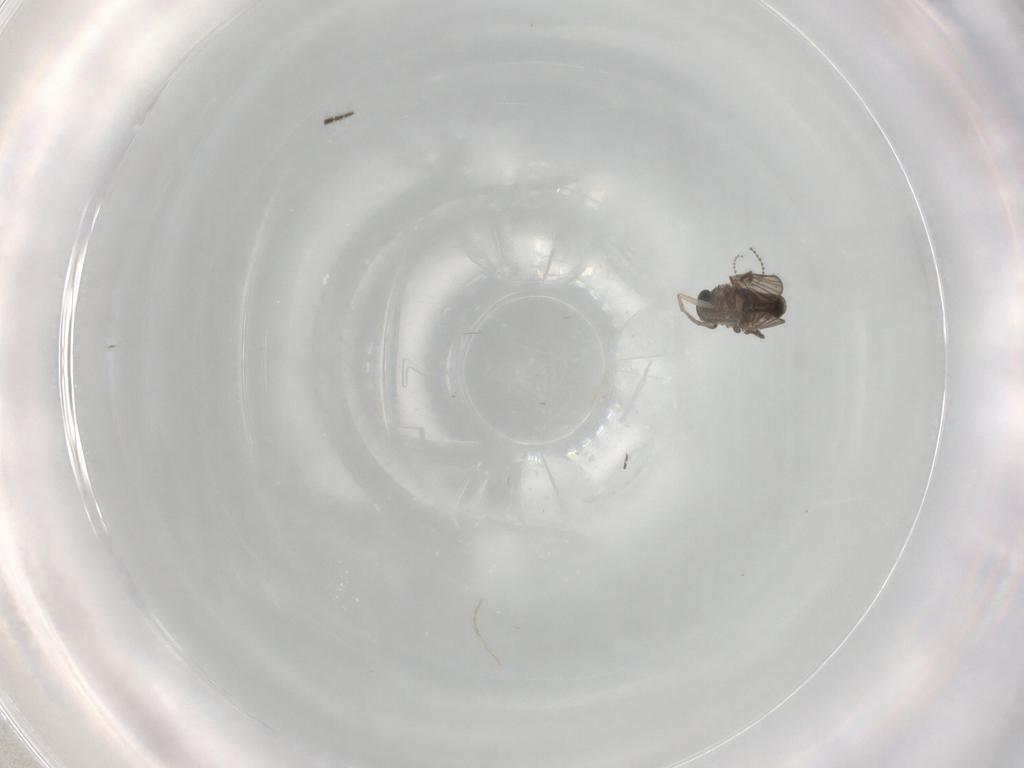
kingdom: Animalia
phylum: Arthropoda
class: Insecta
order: Diptera
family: Psychodidae
